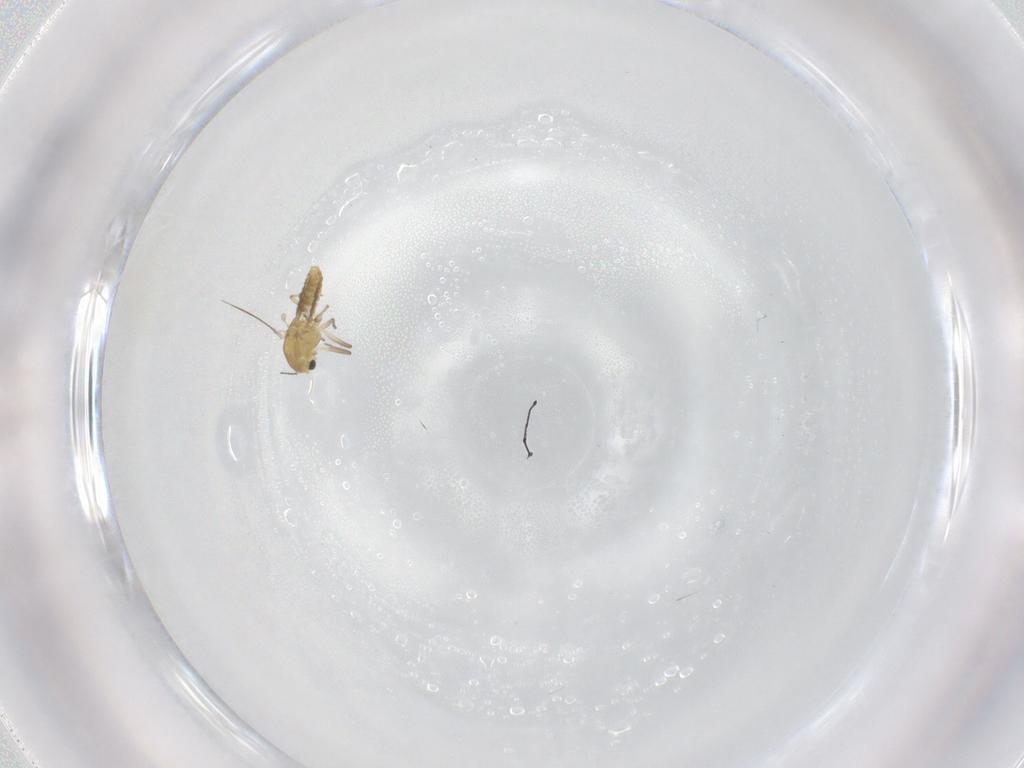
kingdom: Animalia
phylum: Arthropoda
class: Insecta
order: Diptera
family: Chironomidae
